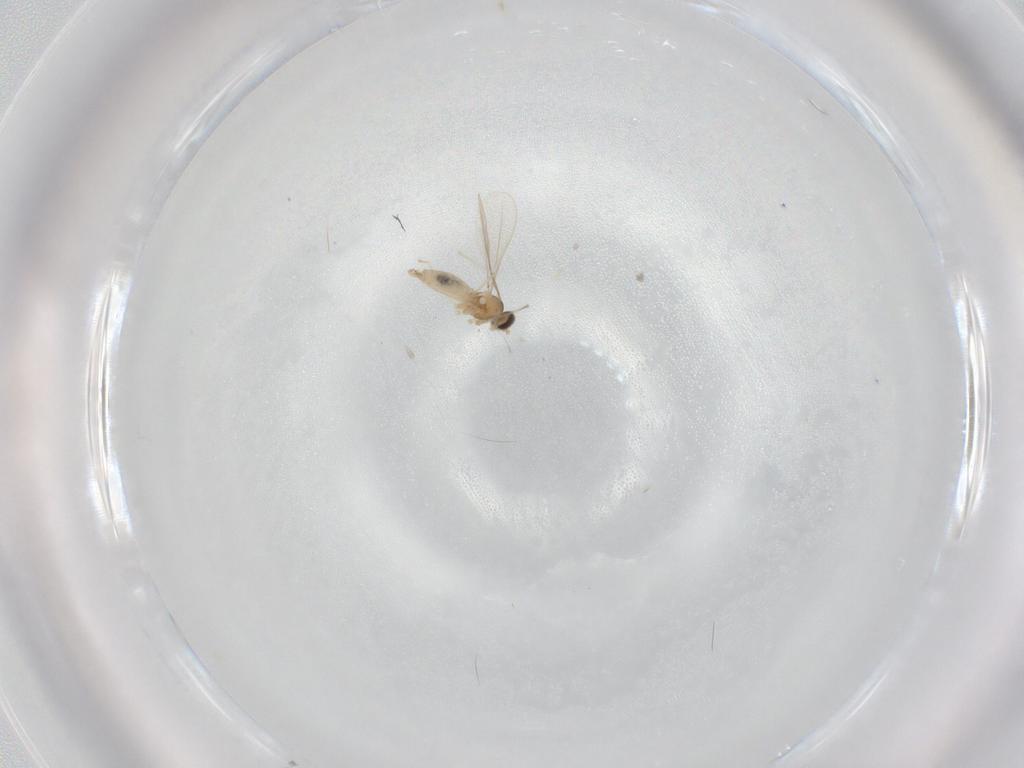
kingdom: Animalia
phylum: Arthropoda
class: Insecta
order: Diptera
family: Cecidomyiidae
